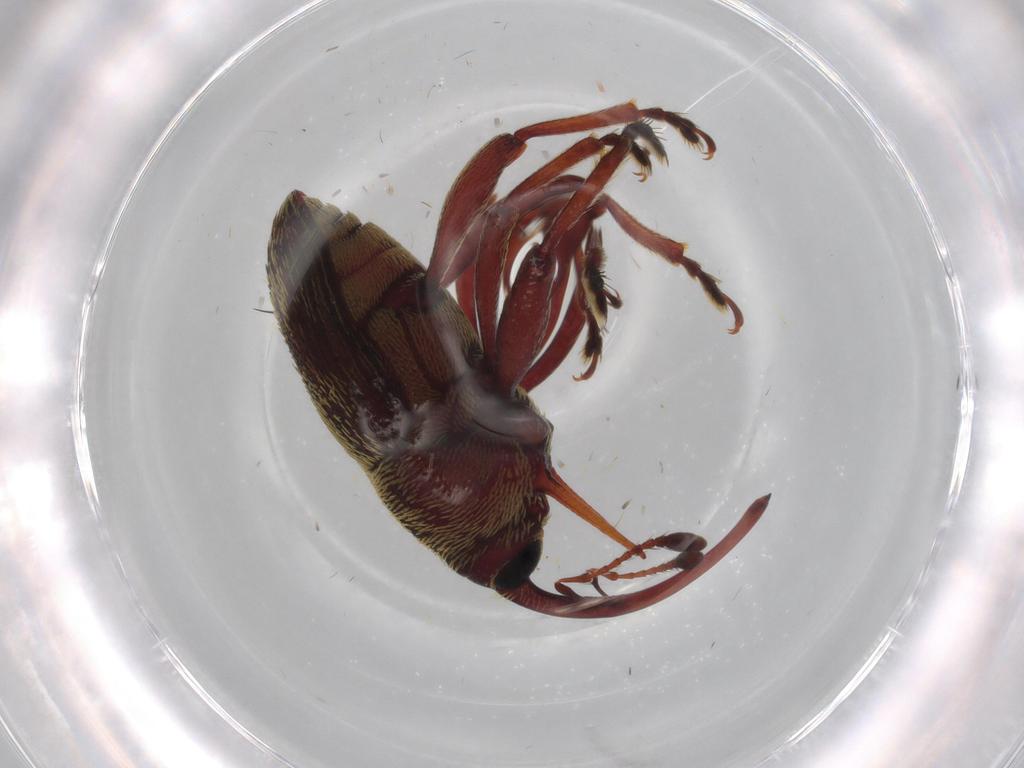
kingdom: Animalia
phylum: Arthropoda
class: Insecta
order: Coleoptera
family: Curculionidae
